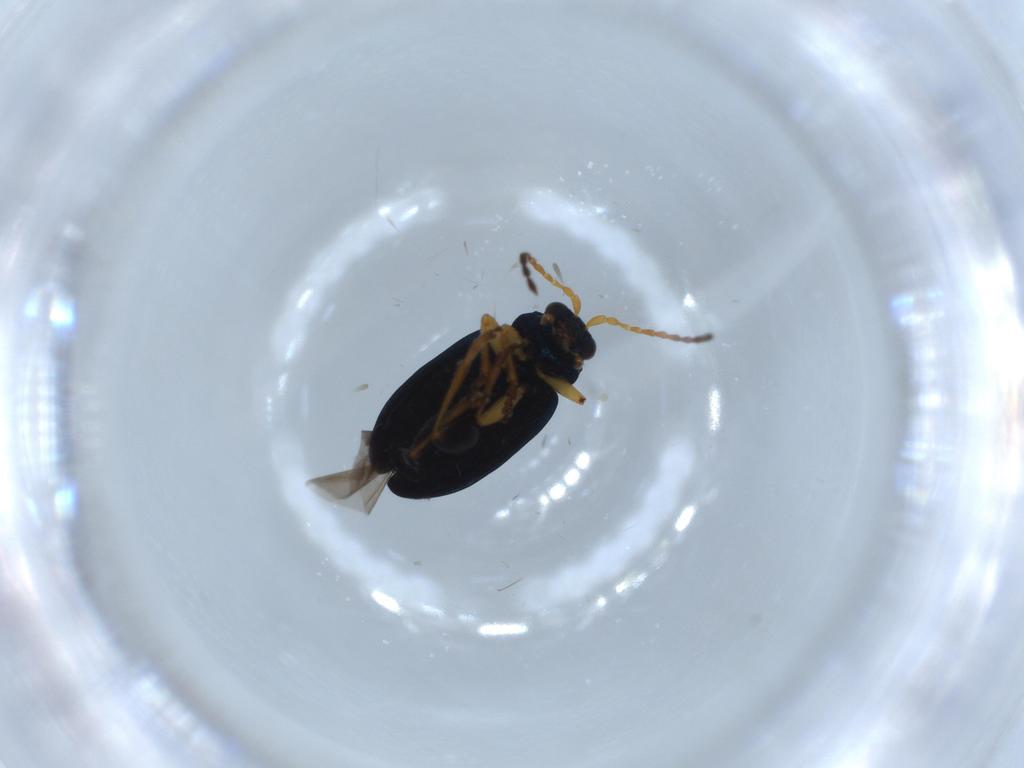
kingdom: Animalia
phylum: Arthropoda
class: Insecta
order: Coleoptera
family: Chrysomelidae
